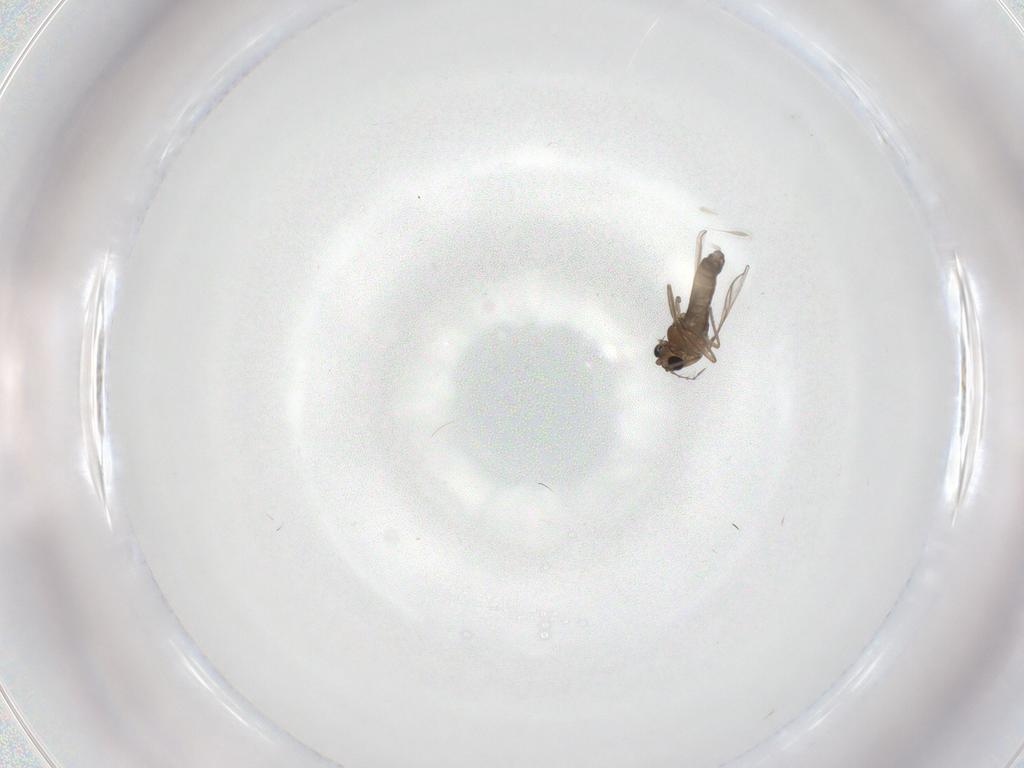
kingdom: Animalia
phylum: Arthropoda
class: Insecta
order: Diptera
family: Chironomidae
